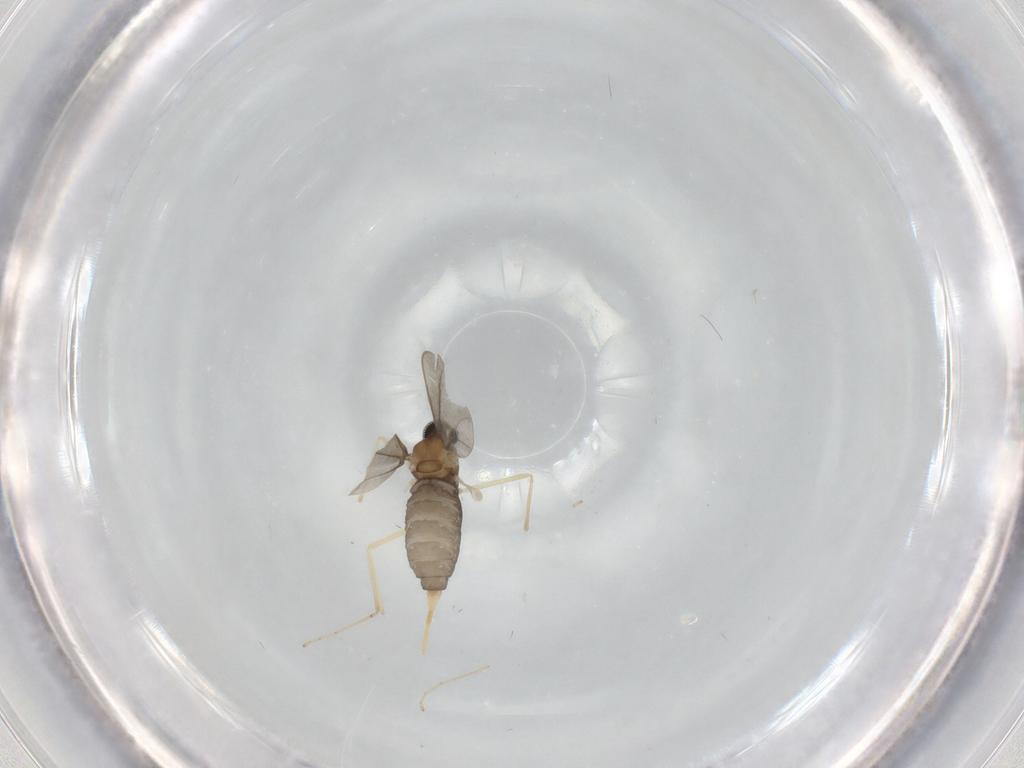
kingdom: Animalia
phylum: Arthropoda
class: Insecta
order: Diptera
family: Cecidomyiidae
